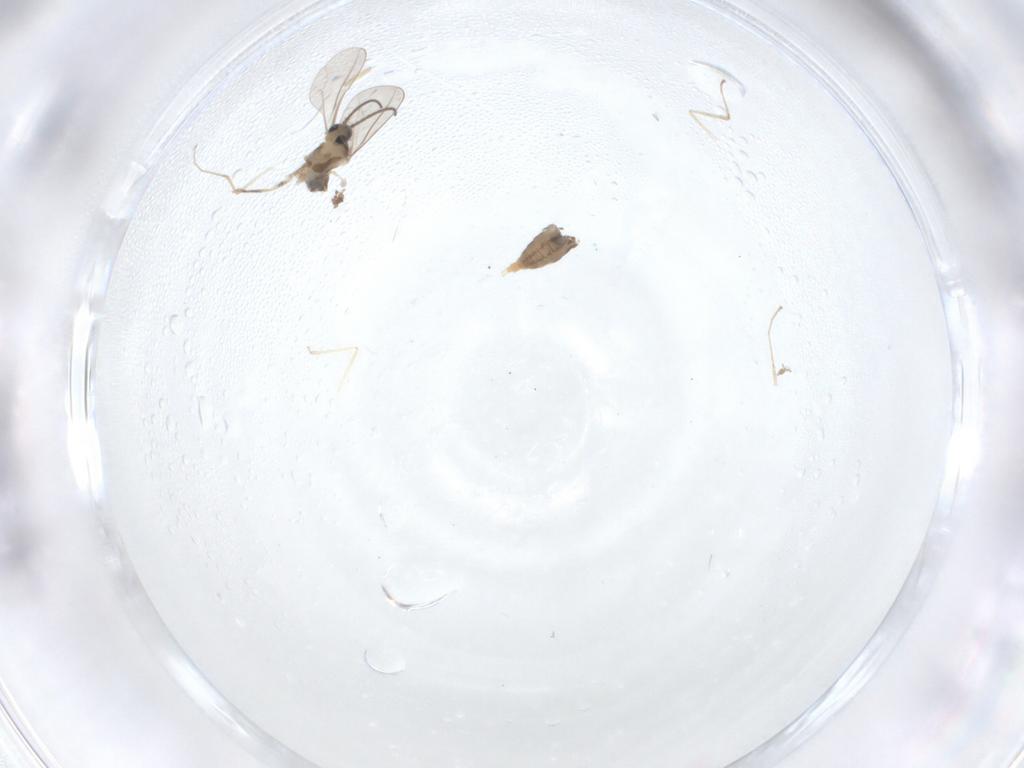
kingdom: Animalia
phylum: Arthropoda
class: Insecta
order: Diptera
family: Cecidomyiidae
